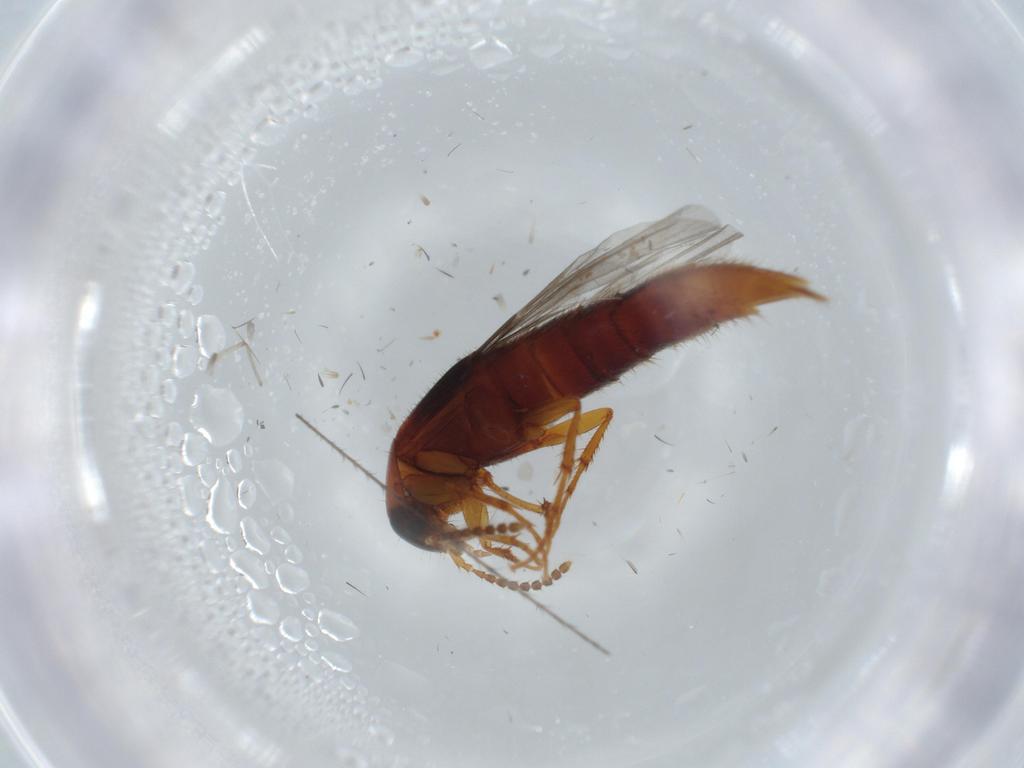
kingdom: Animalia
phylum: Arthropoda
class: Insecta
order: Coleoptera
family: Staphylinidae
